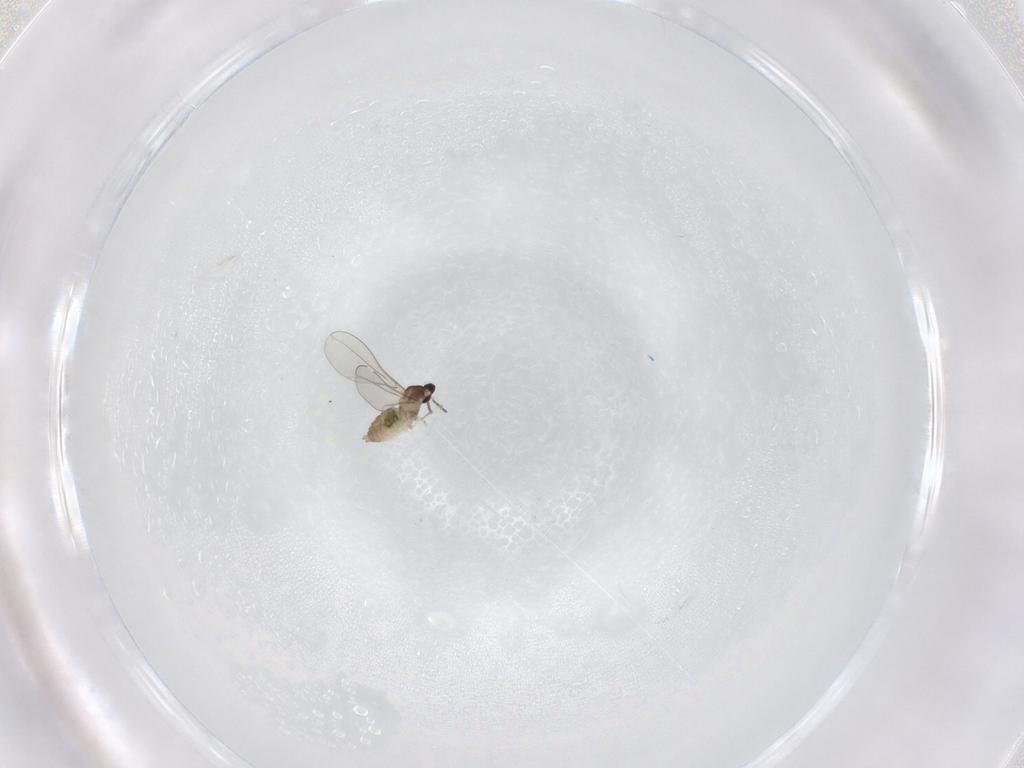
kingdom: Animalia
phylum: Arthropoda
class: Insecta
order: Diptera
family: Cecidomyiidae
